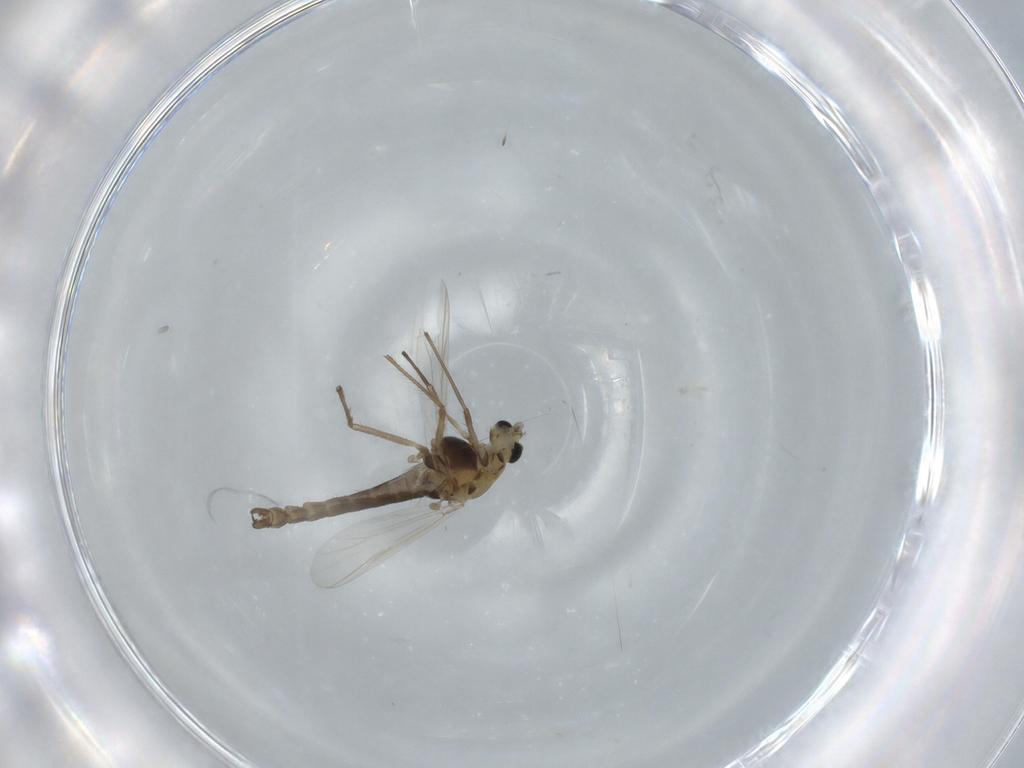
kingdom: Animalia
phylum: Arthropoda
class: Insecta
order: Diptera
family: Chironomidae
